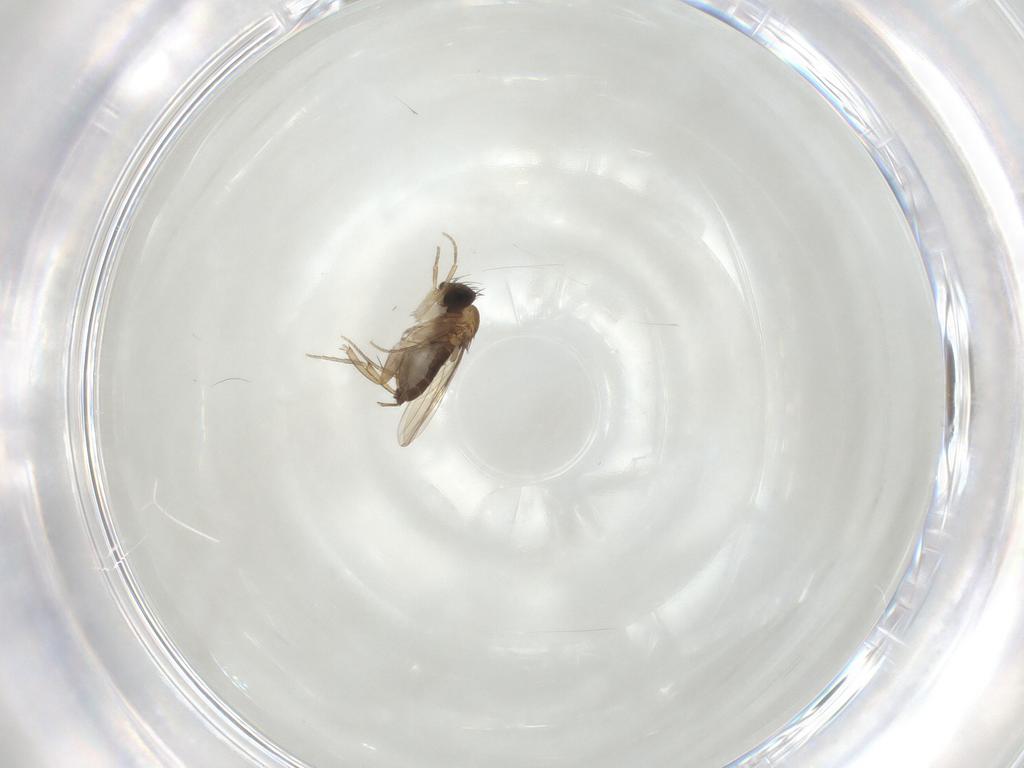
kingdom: Animalia
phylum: Arthropoda
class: Insecta
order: Diptera
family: Phoridae
